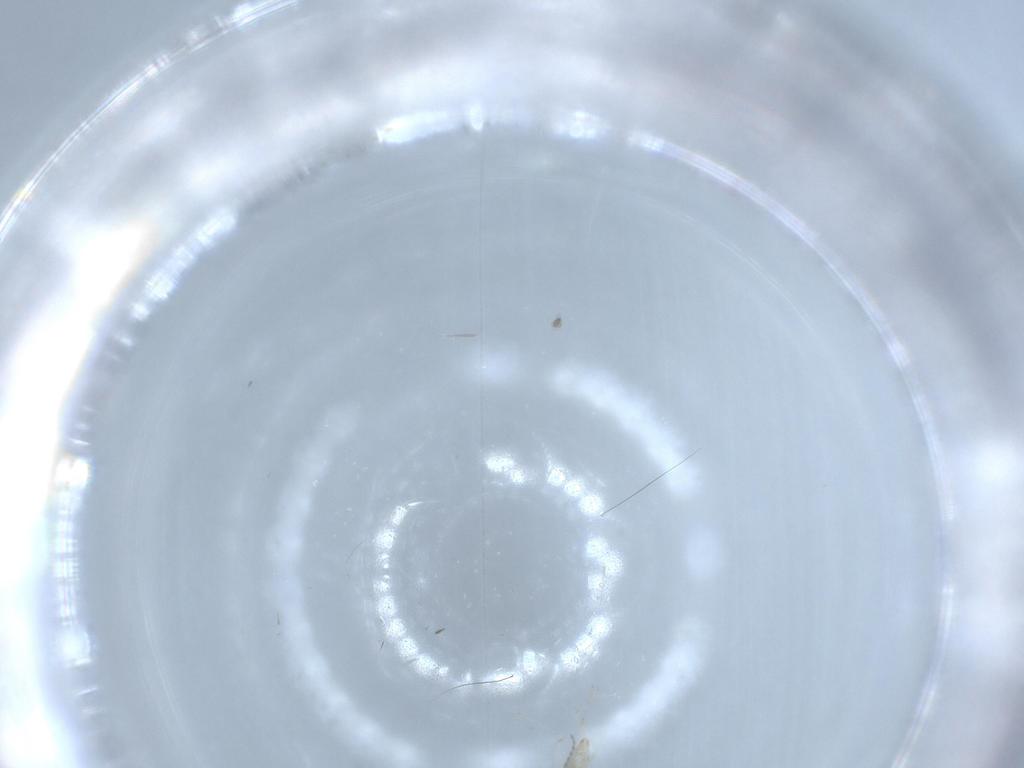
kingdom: Animalia
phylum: Arthropoda
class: Insecta
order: Diptera
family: Cecidomyiidae
